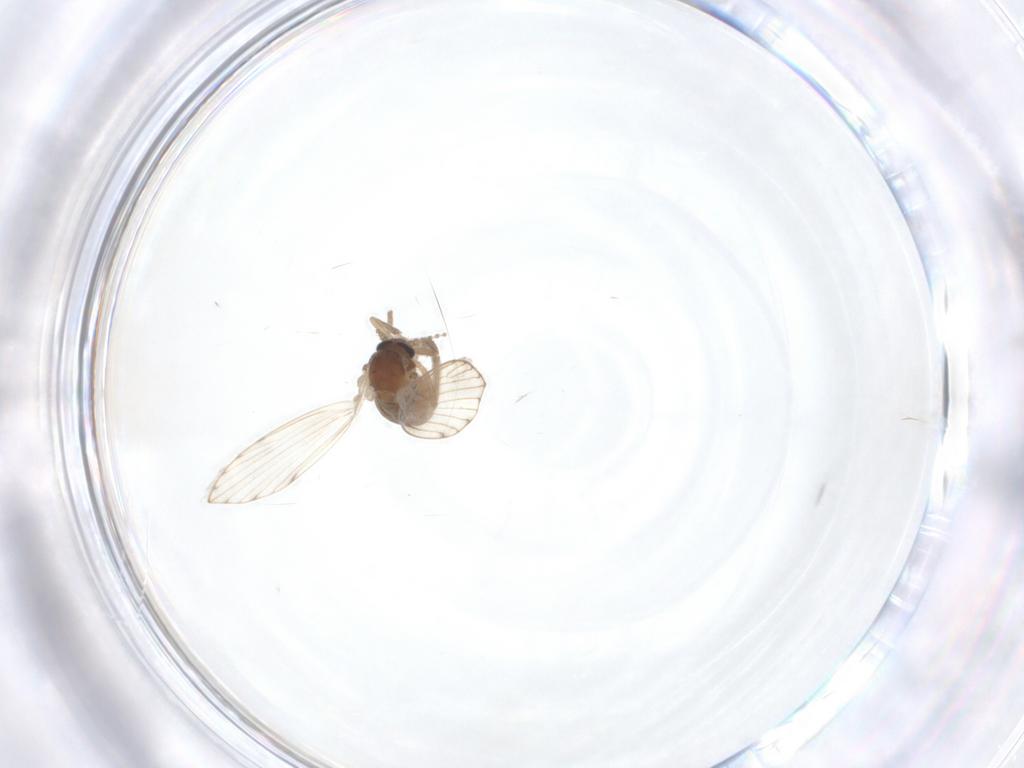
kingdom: Animalia
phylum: Arthropoda
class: Insecta
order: Diptera
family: Psychodidae
